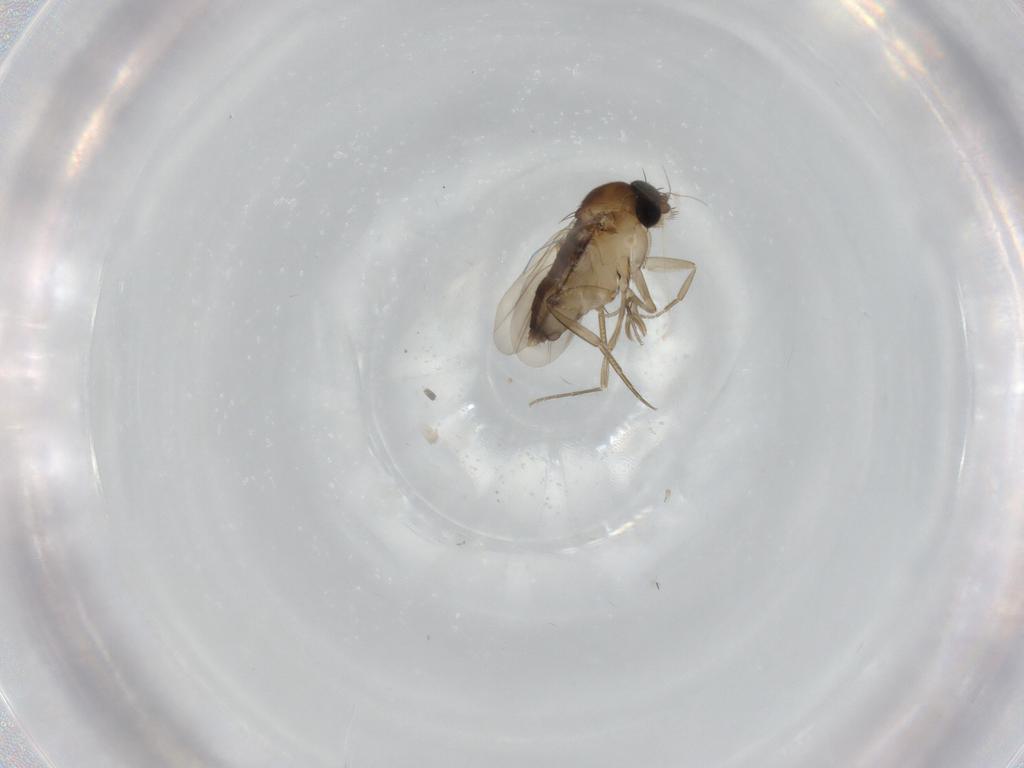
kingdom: Animalia
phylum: Arthropoda
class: Insecta
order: Diptera
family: Phoridae
